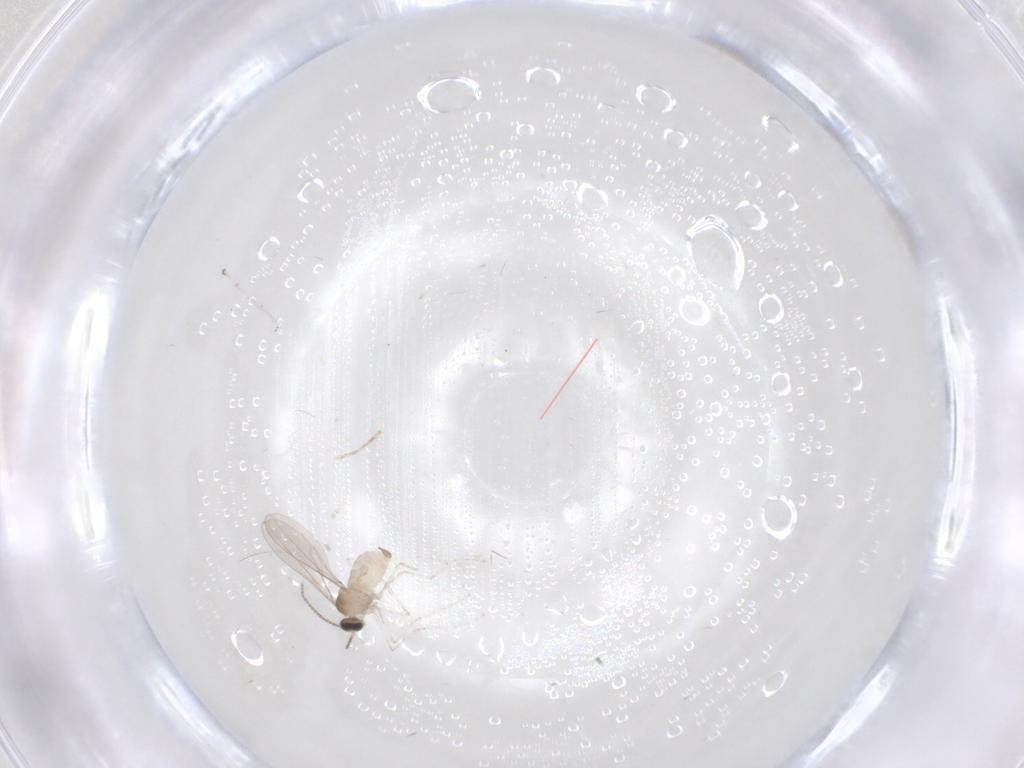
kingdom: Animalia
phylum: Arthropoda
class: Insecta
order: Diptera
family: Cecidomyiidae
